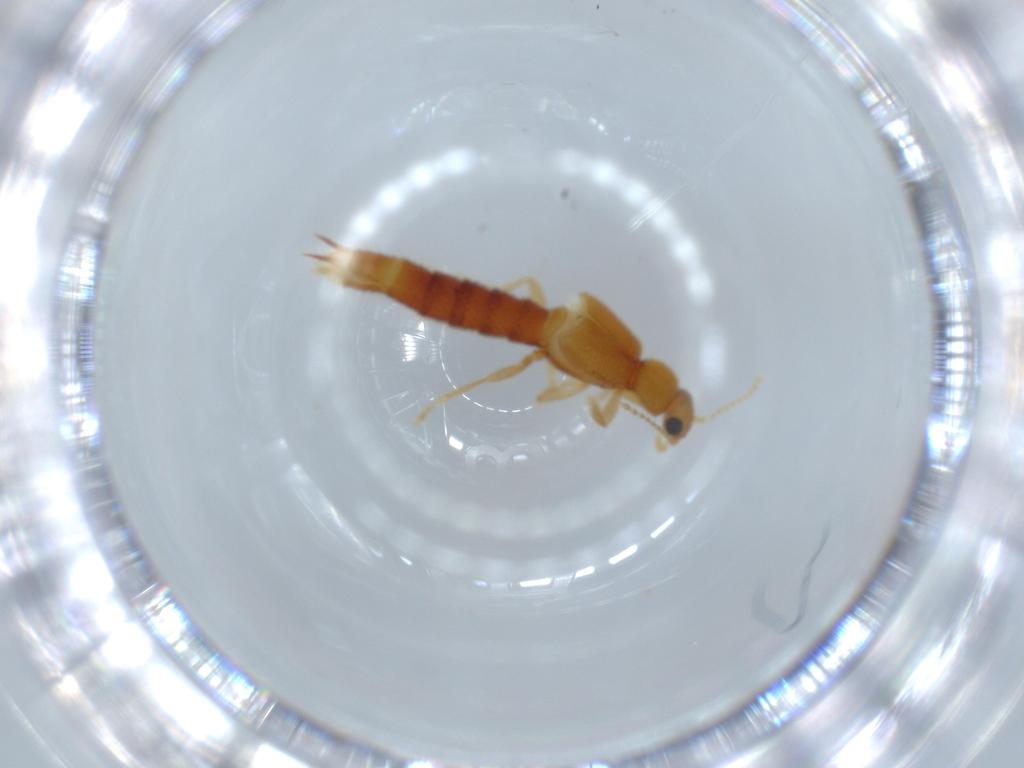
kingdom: Animalia
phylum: Arthropoda
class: Insecta
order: Coleoptera
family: Staphylinidae
